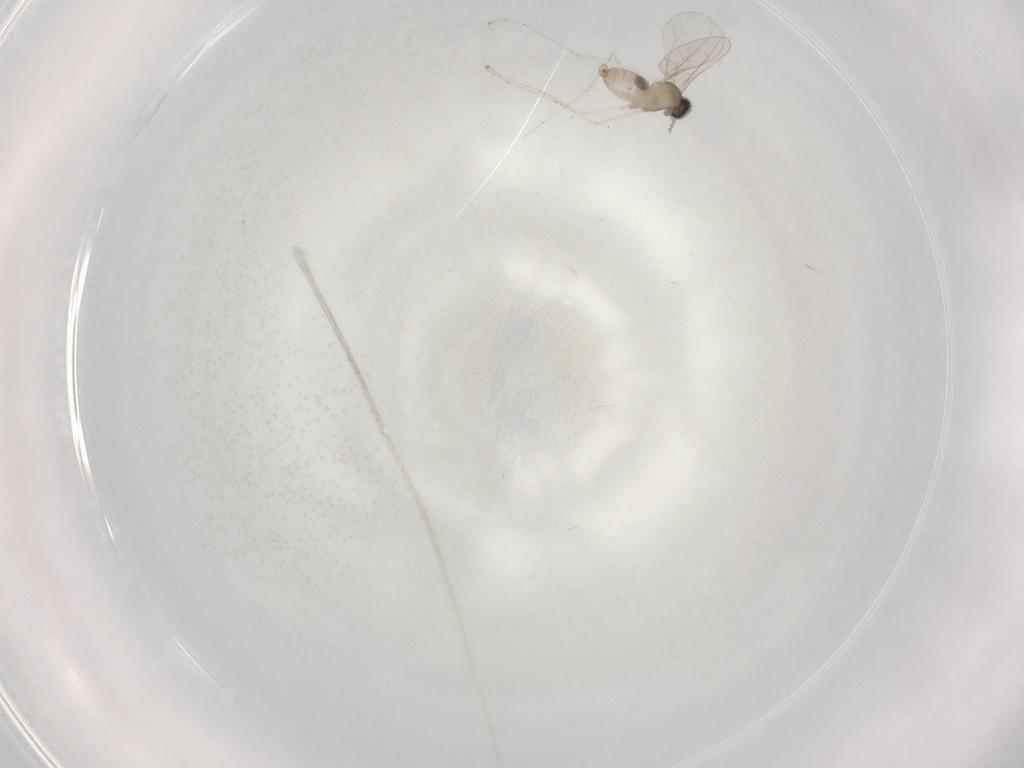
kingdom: Animalia
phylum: Arthropoda
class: Insecta
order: Diptera
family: Cecidomyiidae
